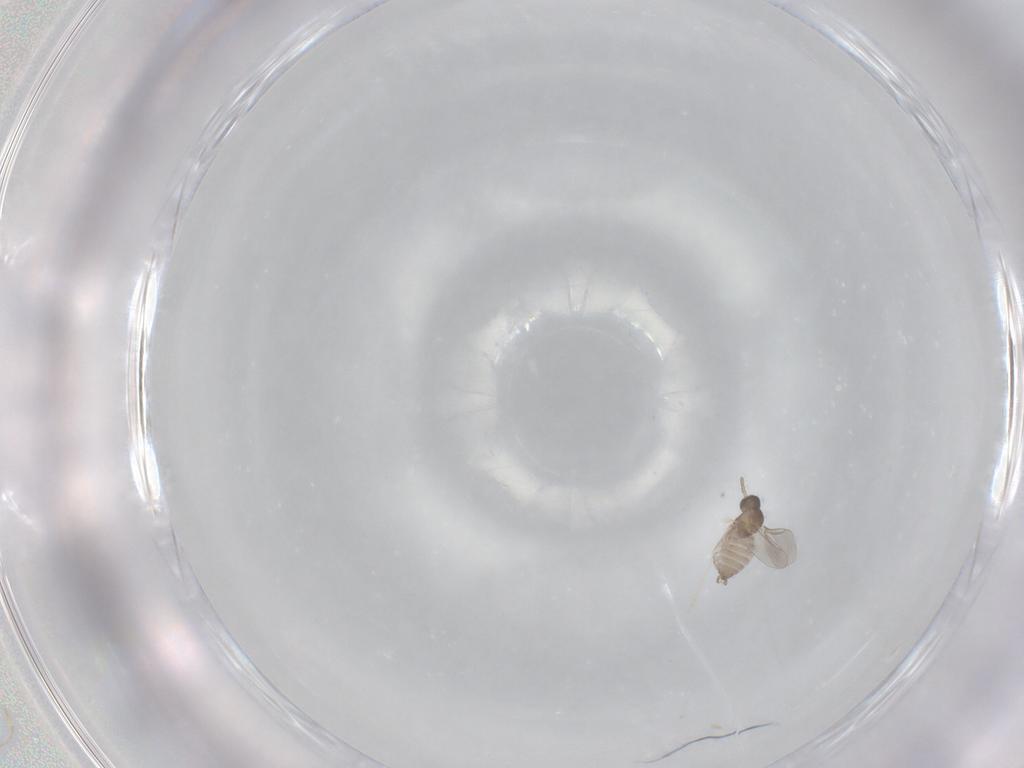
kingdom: Animalia
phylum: Arthropoda
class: Insecta
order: Diptera
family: Cecidomyiidae
